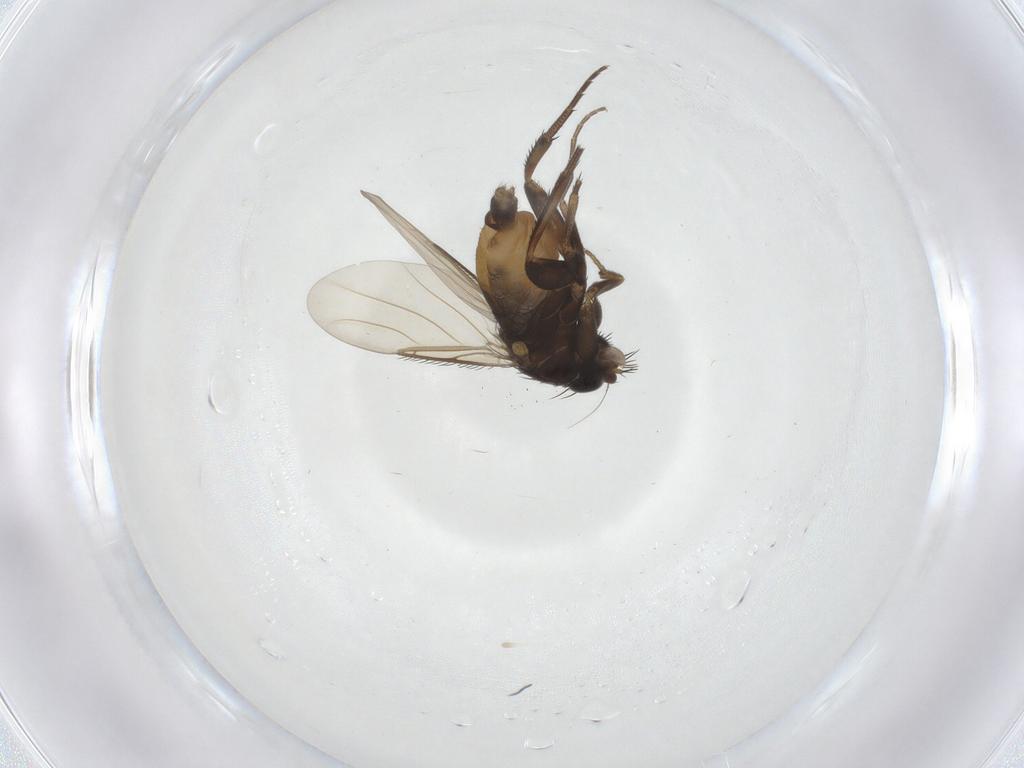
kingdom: Animalia
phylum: Arthropoda
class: Insecta
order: Diptera
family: Phoridae
